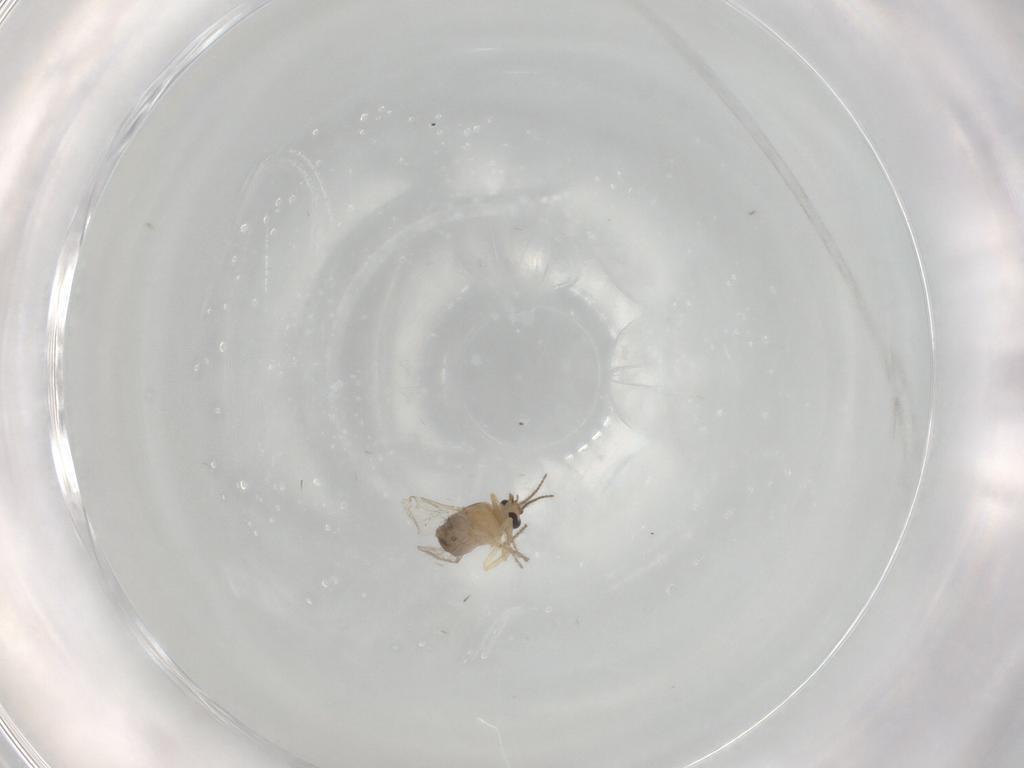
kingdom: Animalia
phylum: Arthropoda
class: Insecta
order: Diptera
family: Ceratopogonidae
